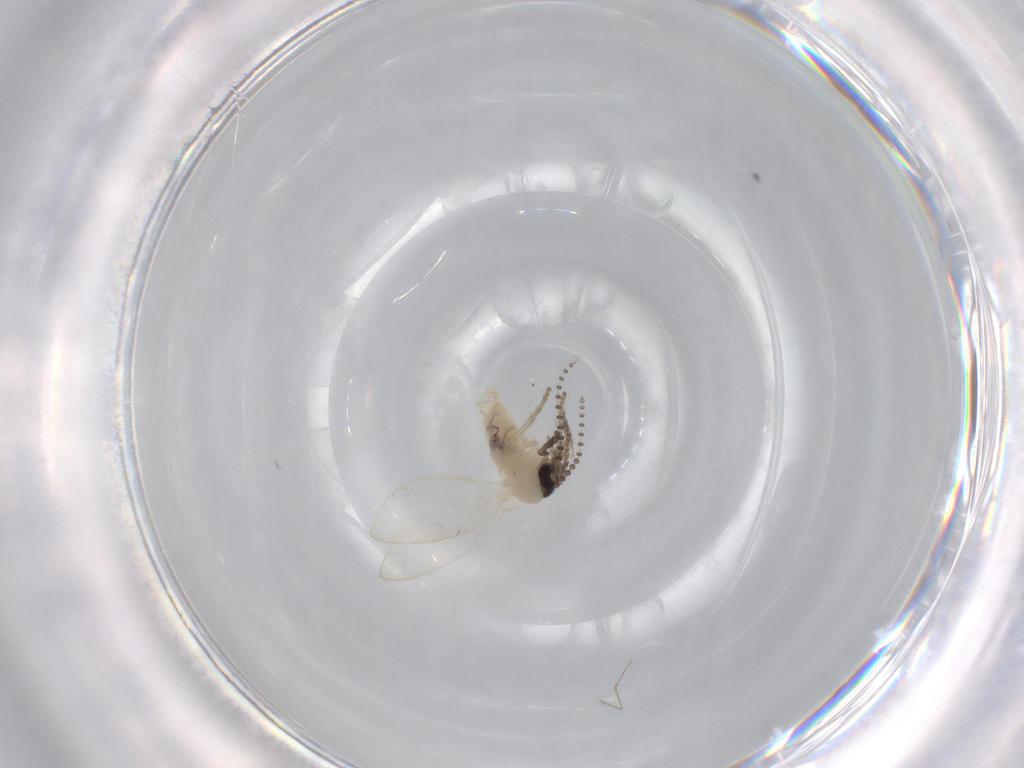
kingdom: Animalia
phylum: Arthropoda
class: Insecta
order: Diptera
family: Psychodidae
